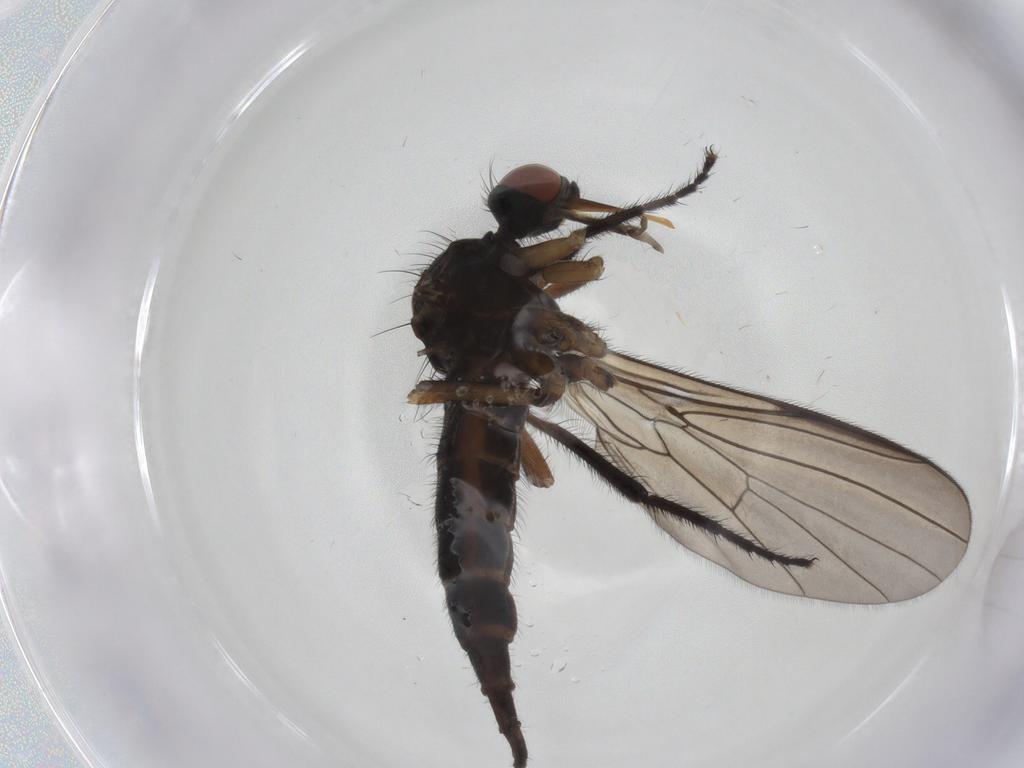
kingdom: Animalia
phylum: Arthropoda
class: Insecta
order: Diptera
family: Empididae
